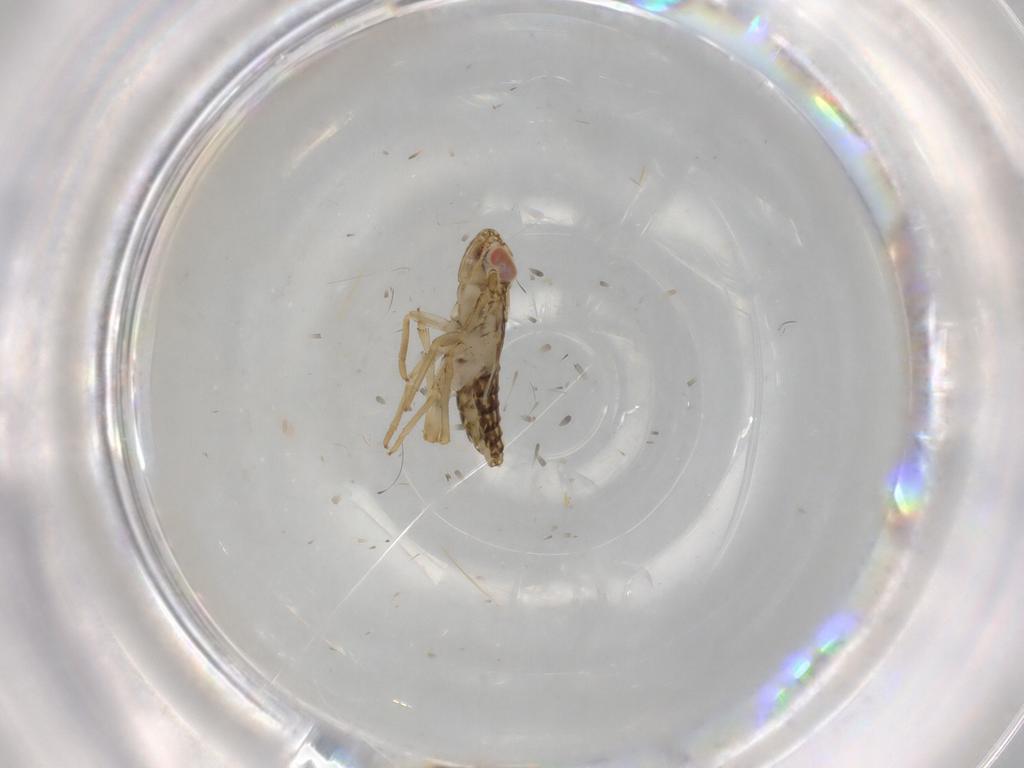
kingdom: Animalia
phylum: Arthropoda
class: Insecta
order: Hemiptera
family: Delphacidae
